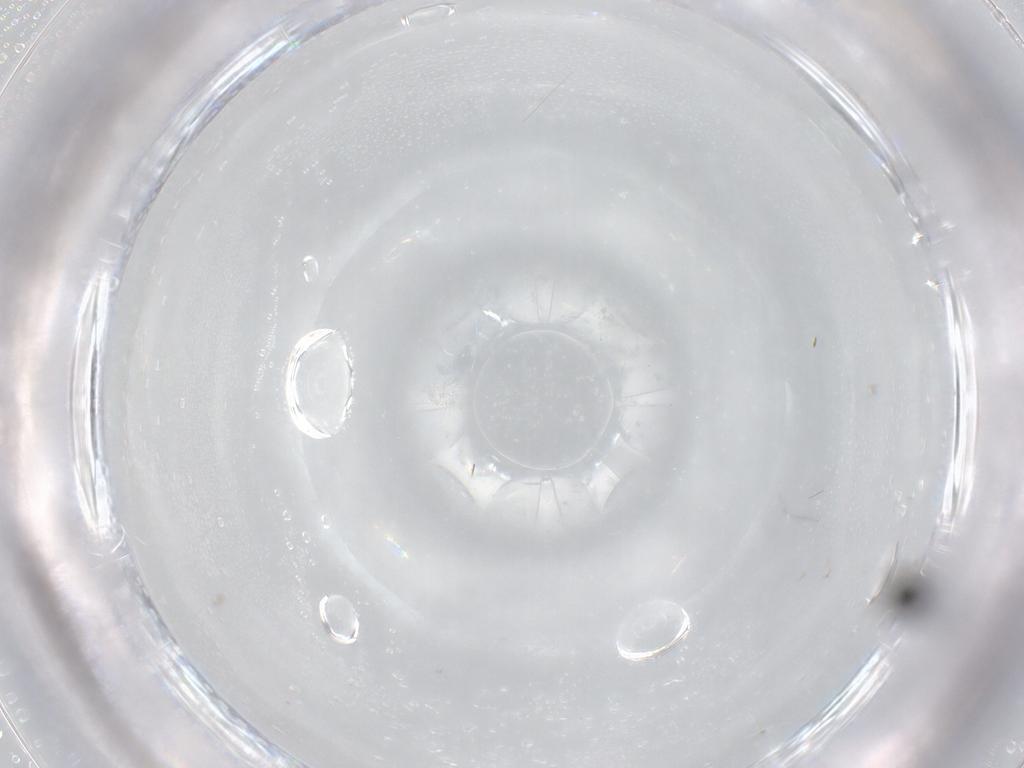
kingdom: Animalia
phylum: Arthropoda
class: Insecta
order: Diptera
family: Chironomidae
